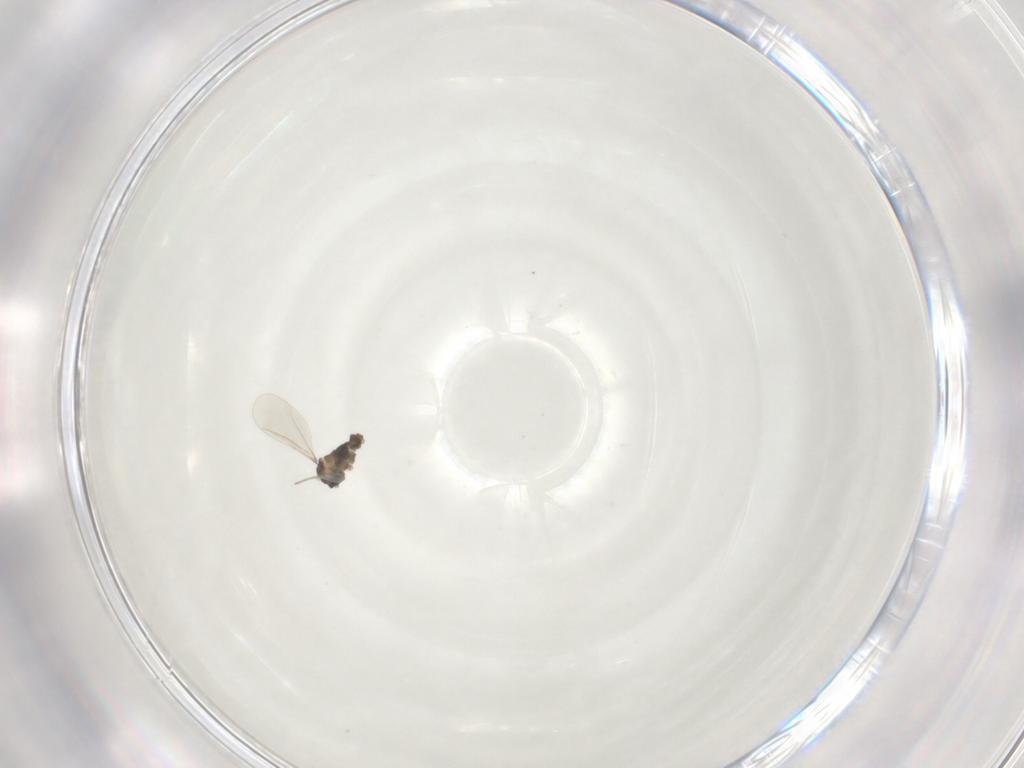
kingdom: Animalia
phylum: Arthropoda
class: Insecta
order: Diptera
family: Cecidomyiidae
